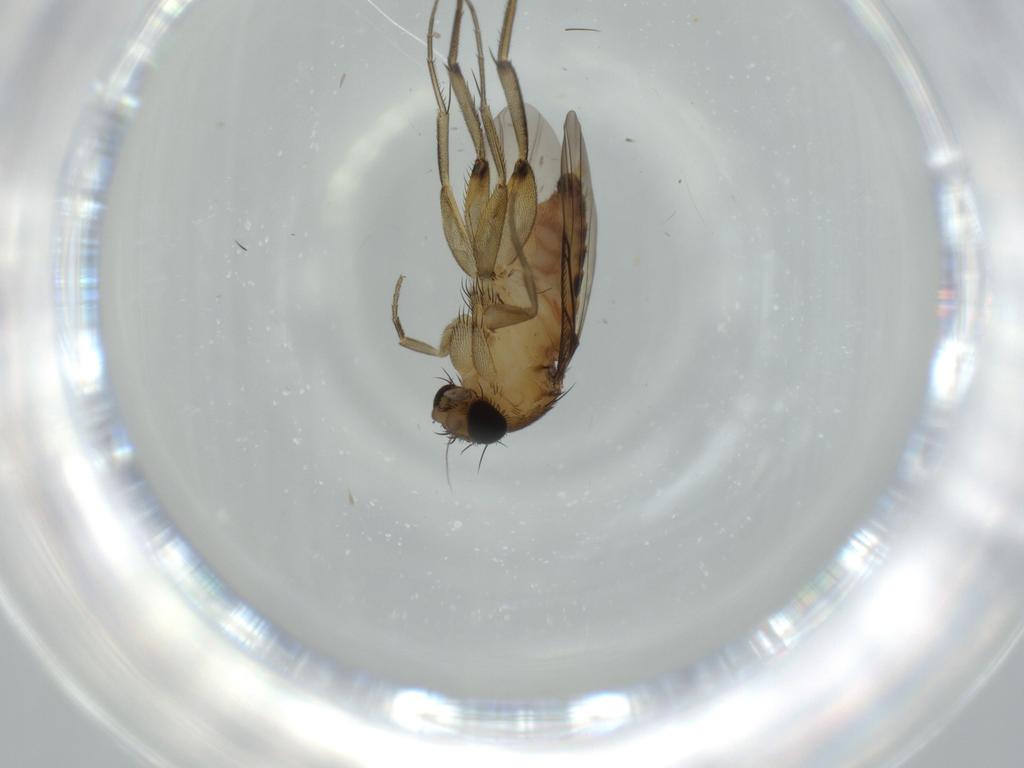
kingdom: Animalia
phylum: Arthropoda
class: Insecta
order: Diptera
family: Phoridae
